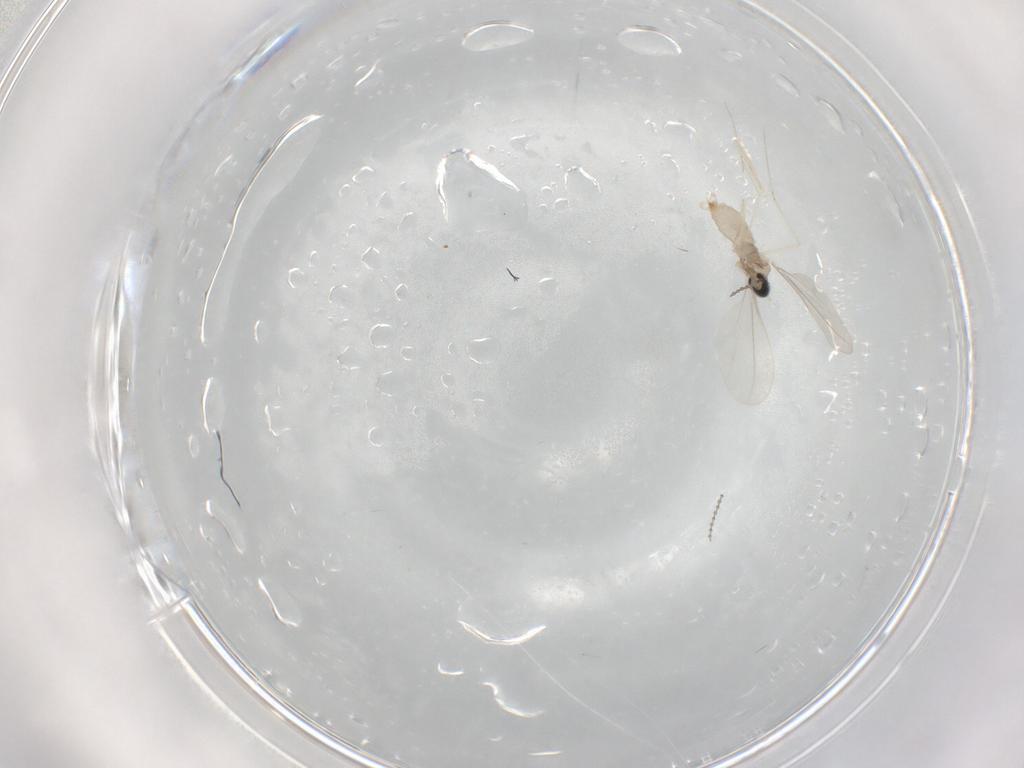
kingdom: Animalia
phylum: Arthropoda
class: Insecta
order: Diptera
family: Cecidomyiidae
